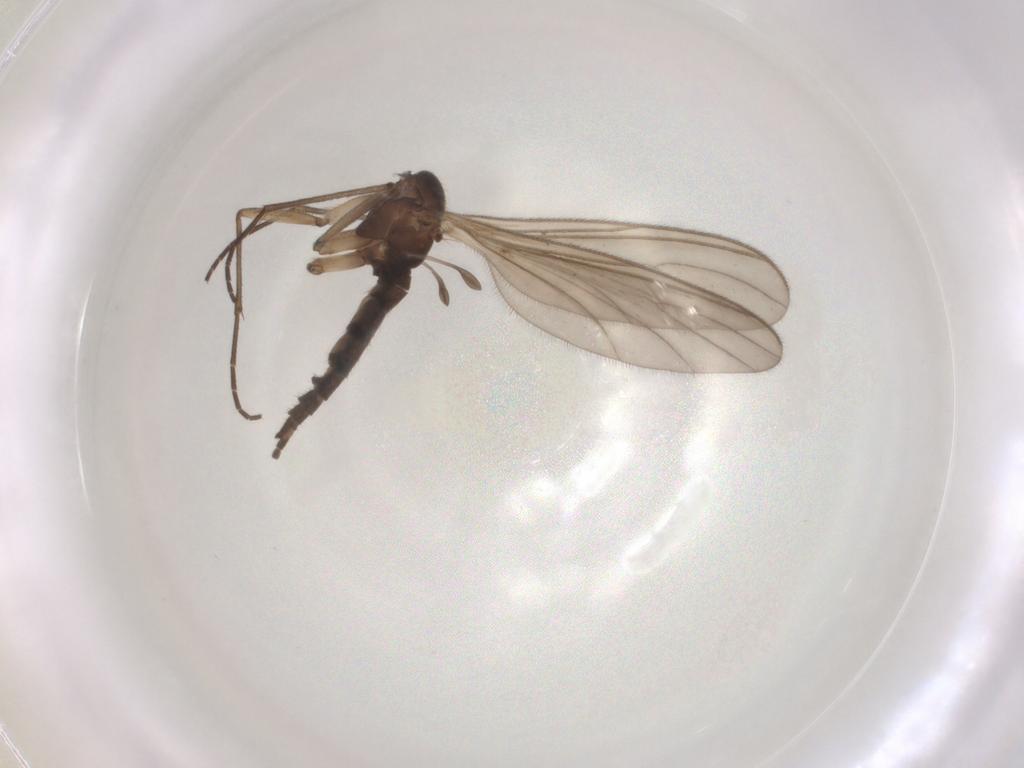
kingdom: Animalia
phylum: Arthropoda
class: Insecta
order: Diptera
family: Sciaridae
